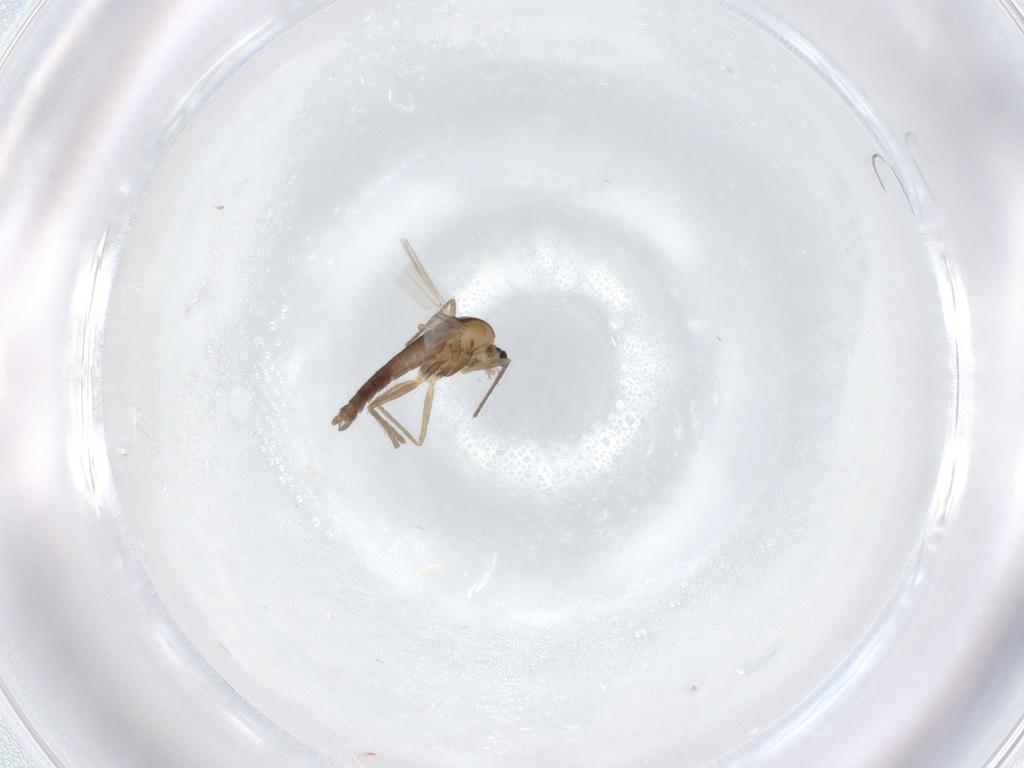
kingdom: Animalia
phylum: Arthropoda
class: Insecta
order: Diptera
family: Chironomidae
